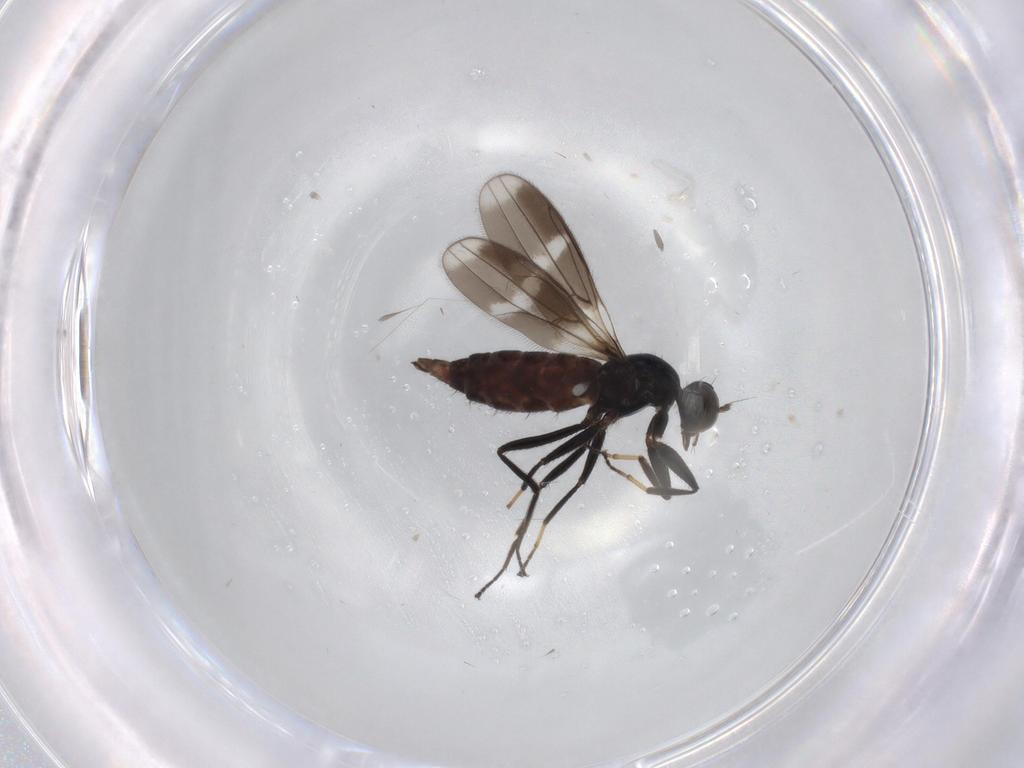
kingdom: Animalia
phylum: Arthropoda
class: Insecta
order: Diptera
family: Hybotidae
